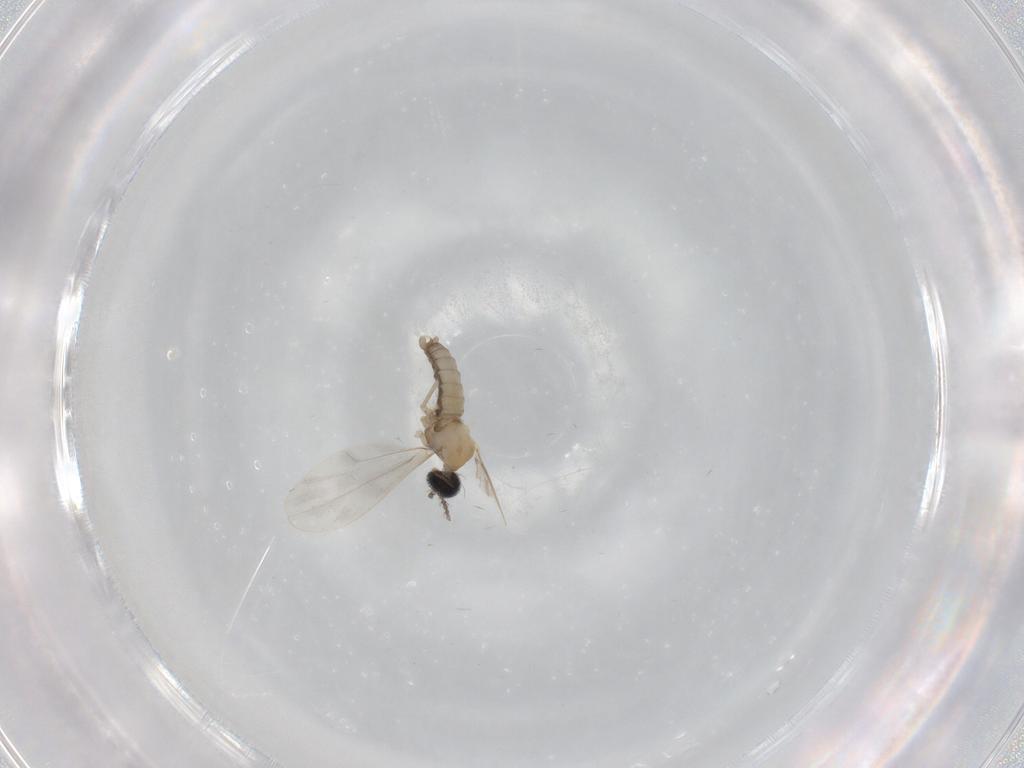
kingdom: Animalia
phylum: Arthropoda
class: Insecta
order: Diptera
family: Cecidomyiidae
